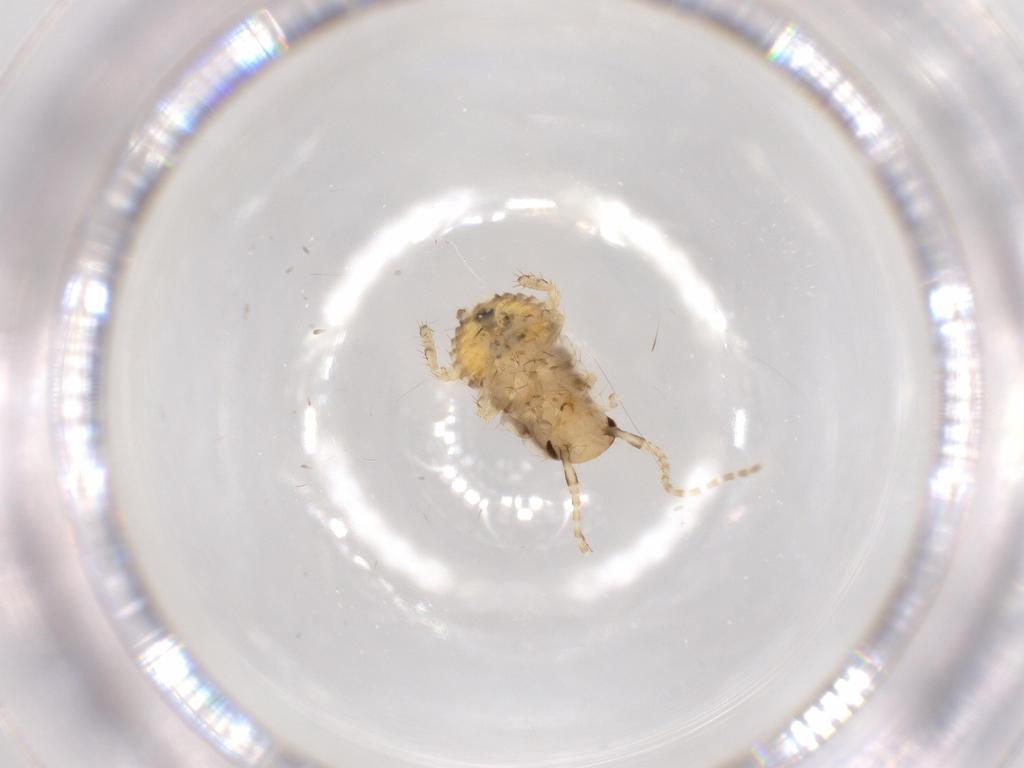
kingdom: Animalia
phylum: Arthropoda
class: Insecta
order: Blattodea
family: Ectobiidae
